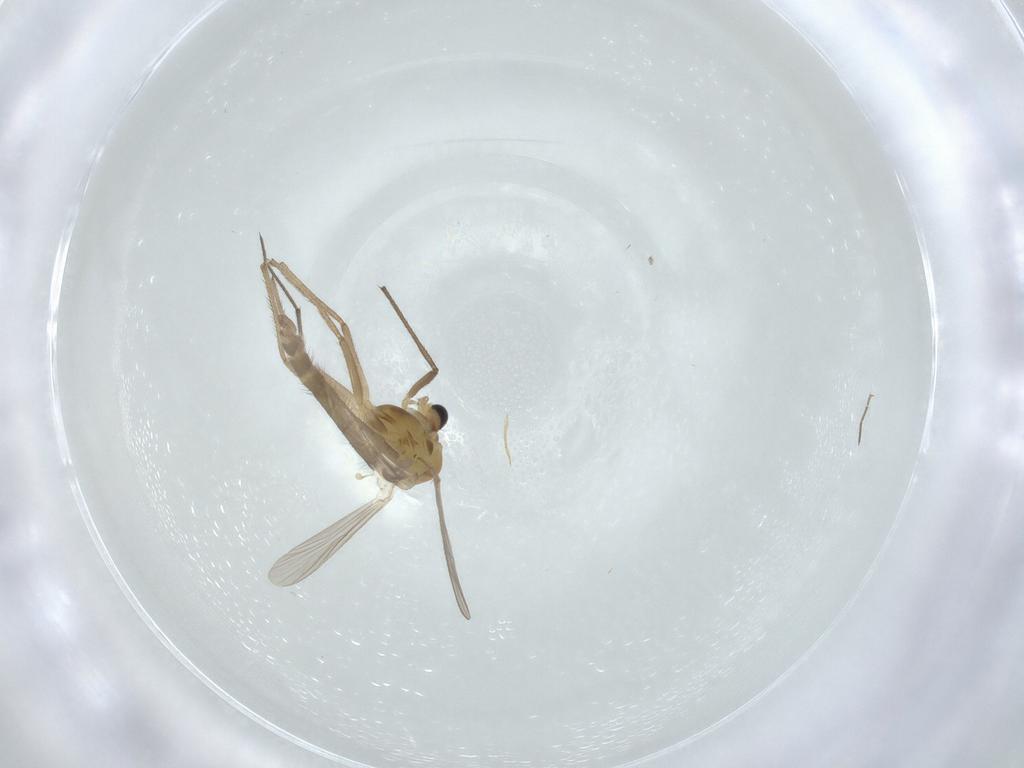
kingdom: Animalia
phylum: Arthropoda
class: Insecta
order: Diptera
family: Chironomidae
